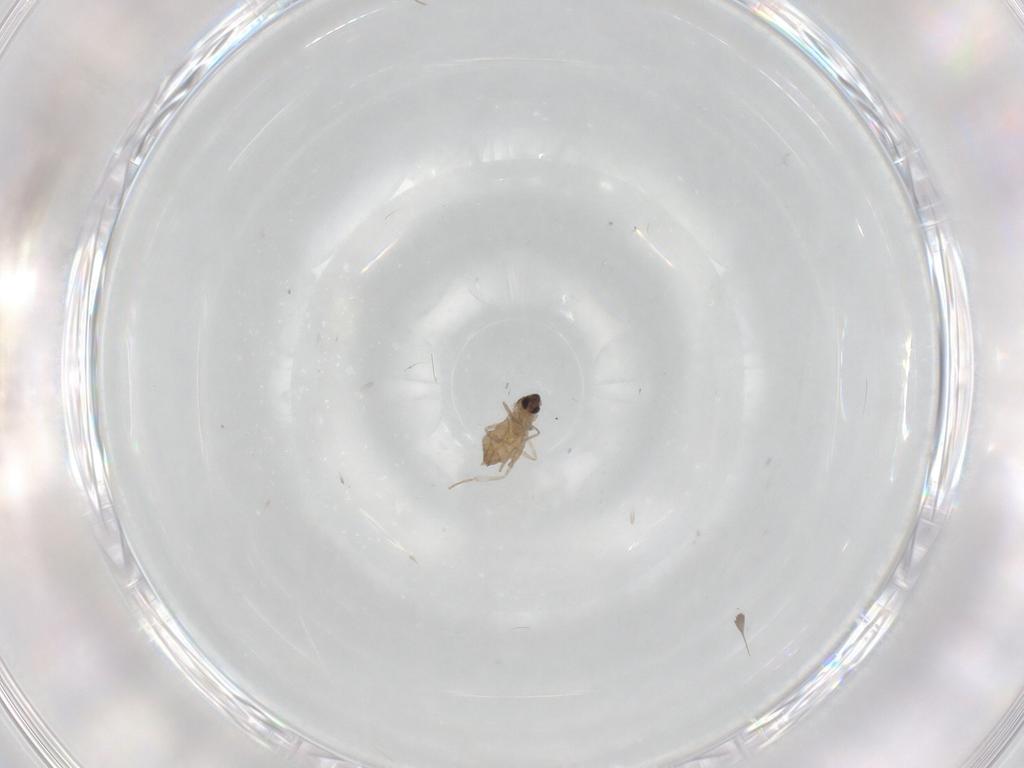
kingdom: Animalia
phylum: Arthropoda
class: Insecta
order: Diptera
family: Cecidomyiidae
